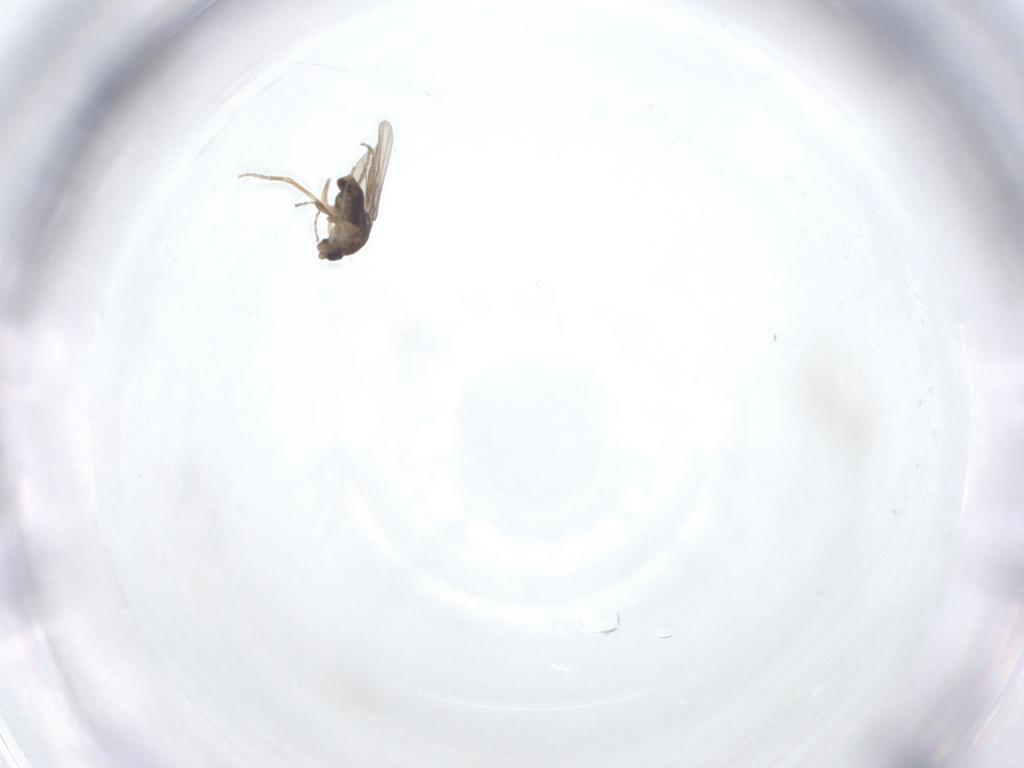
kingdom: Animalia
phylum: Arthropoda
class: Insecta
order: Diptera
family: Phoridae
